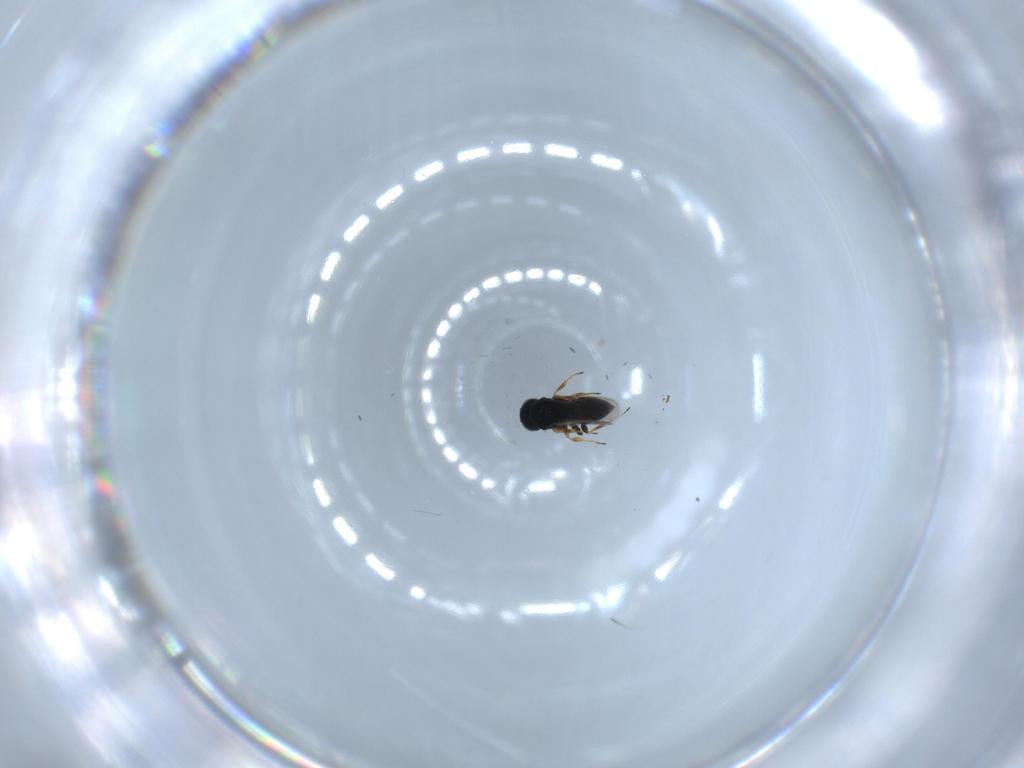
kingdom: Animalia
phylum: Arthropoda
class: Insecta
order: Hymenoptera
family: Scelionidae
